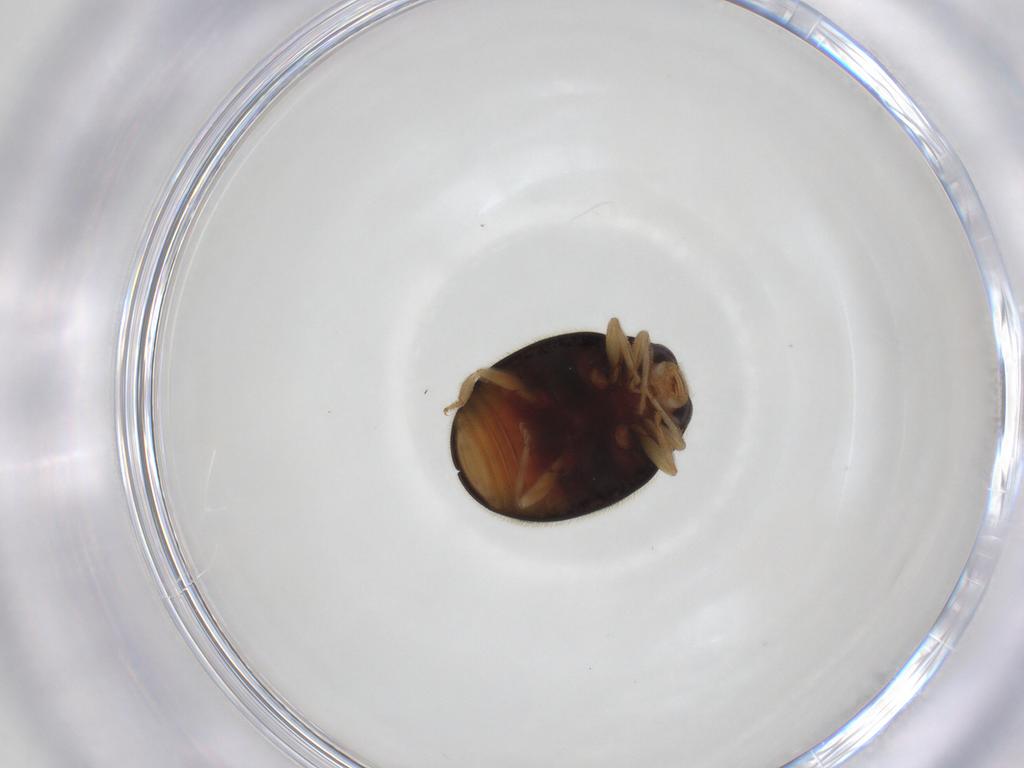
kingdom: Animalia
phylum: Arthropoda
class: Insecta
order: Coleoptera
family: Coccinellidae
